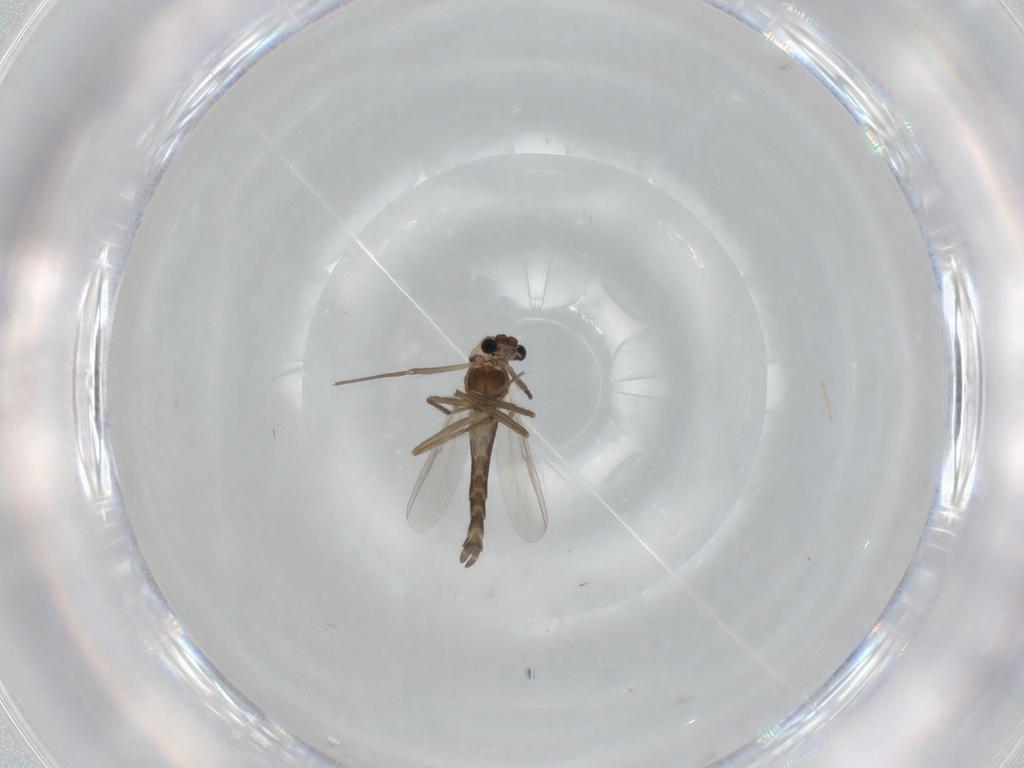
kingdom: Animalia
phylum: Arthropoda
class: Insecta
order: Diptera
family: Chironomidae
